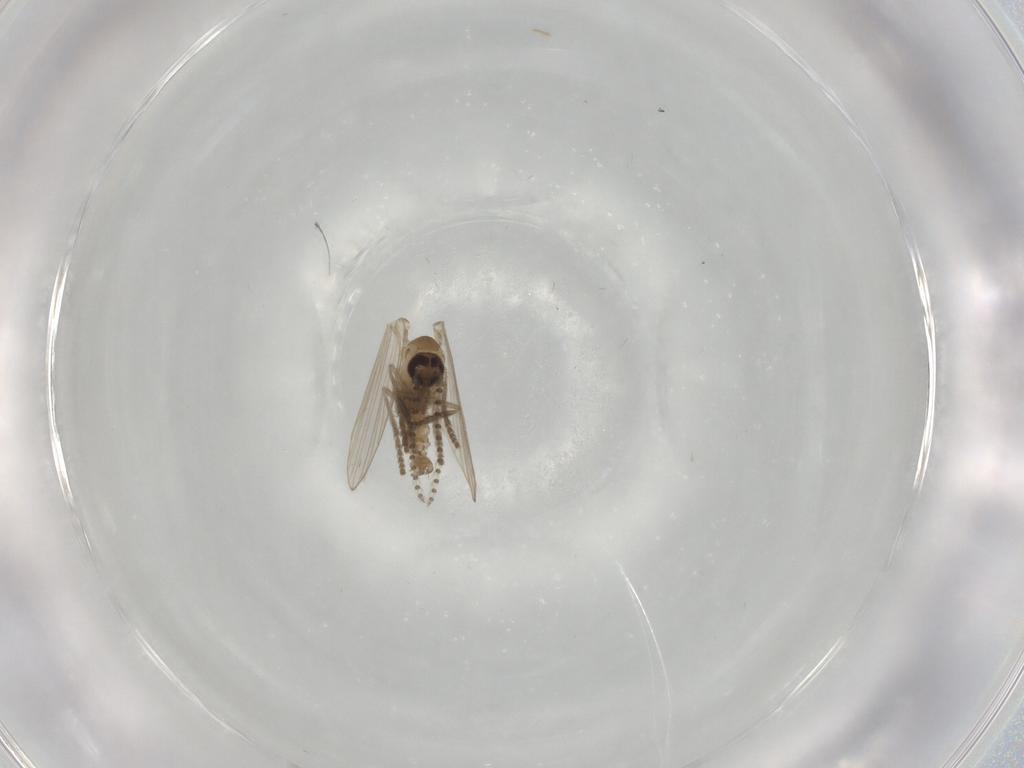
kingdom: Animalia
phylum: Arthropoda
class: Insecta
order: Diptera
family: Psychodidae
